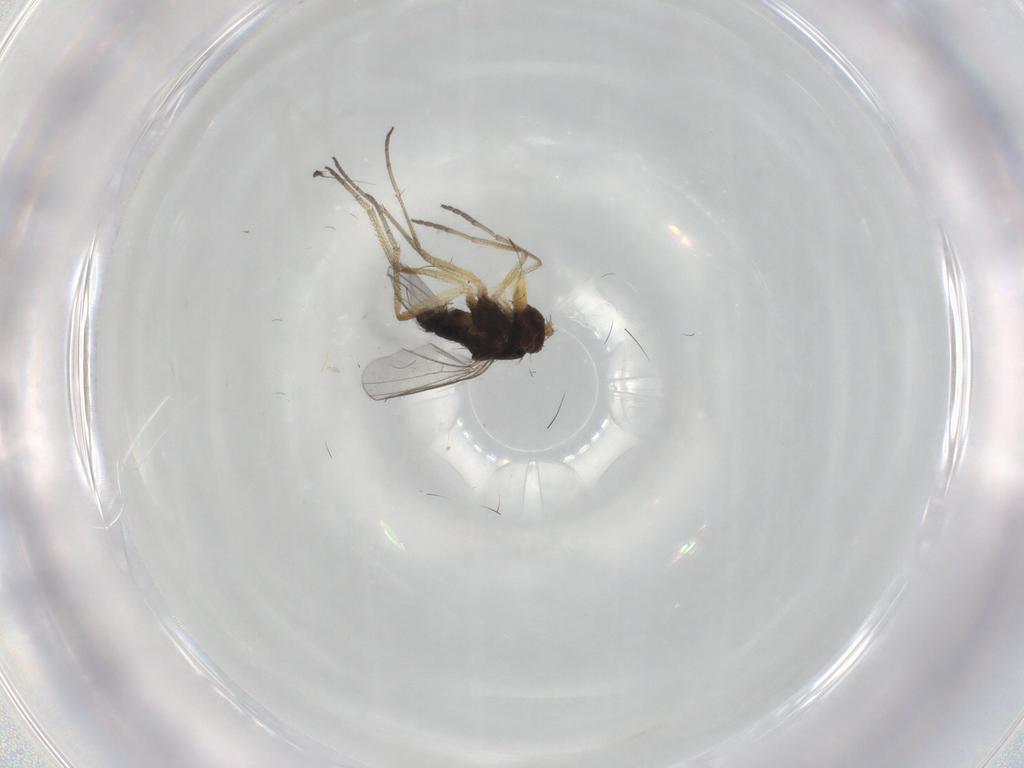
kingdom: Animalia
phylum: Arthropoda
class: Insecta
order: Diptera
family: Dolichopodidae
